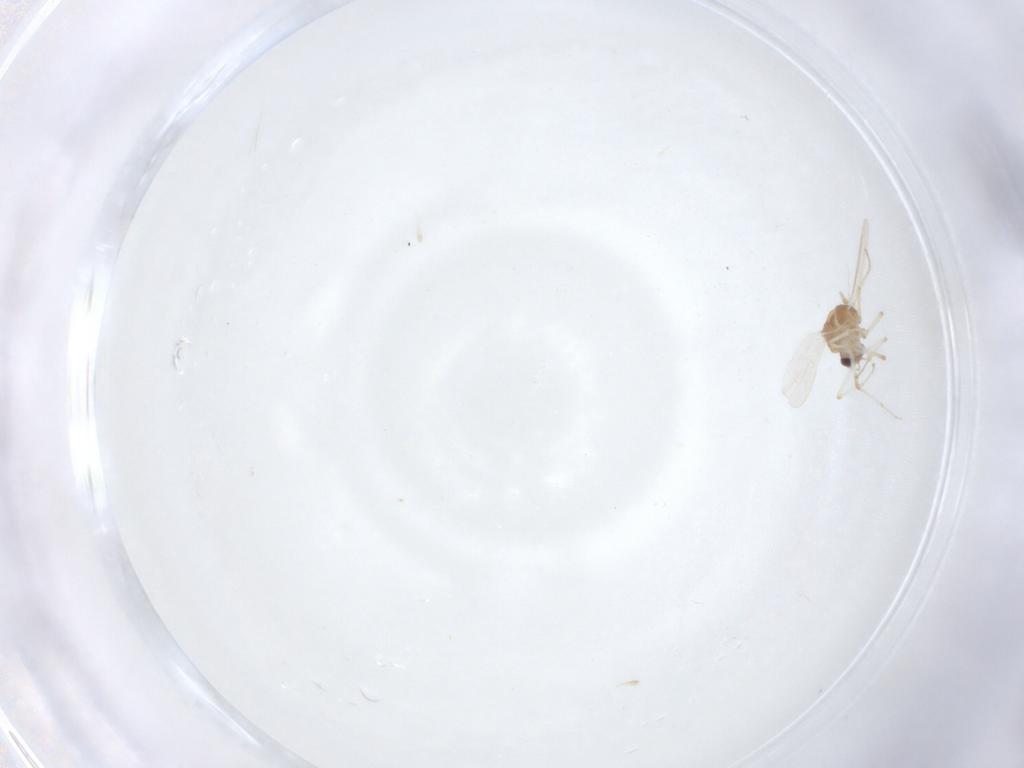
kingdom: Animalia
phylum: Arthropoda
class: Insecta
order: Diptera
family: Ceratopogonidae
